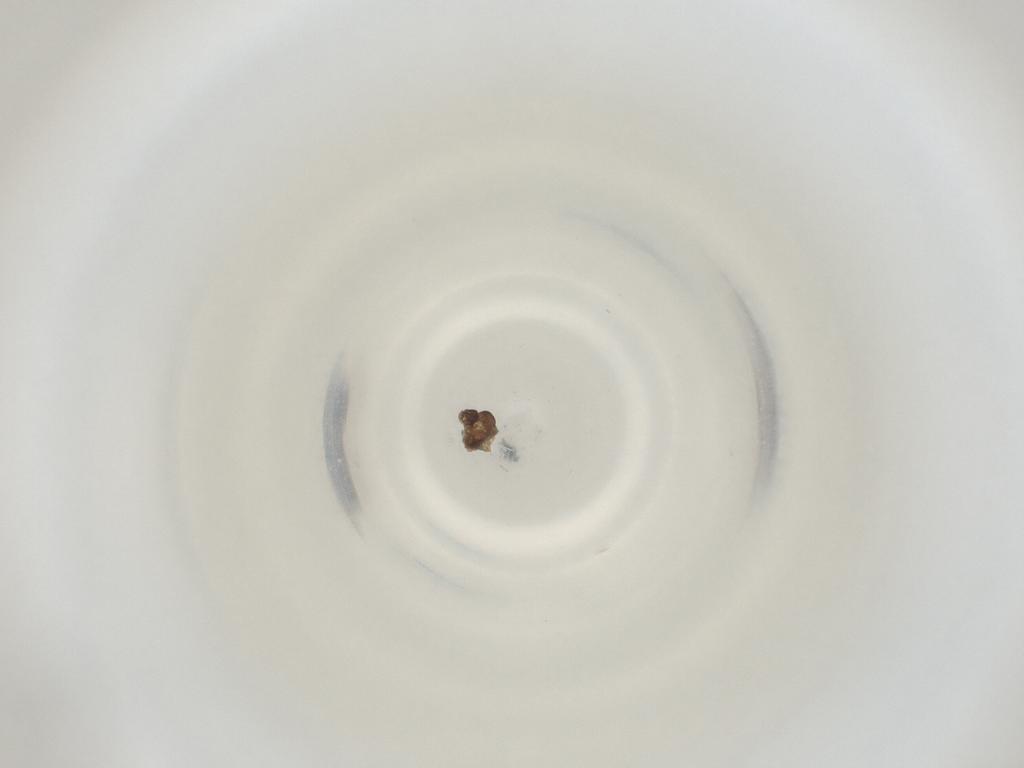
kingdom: Animalia
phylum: Arthropoda
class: Insecta
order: Diptera
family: Cecidomyiidae
